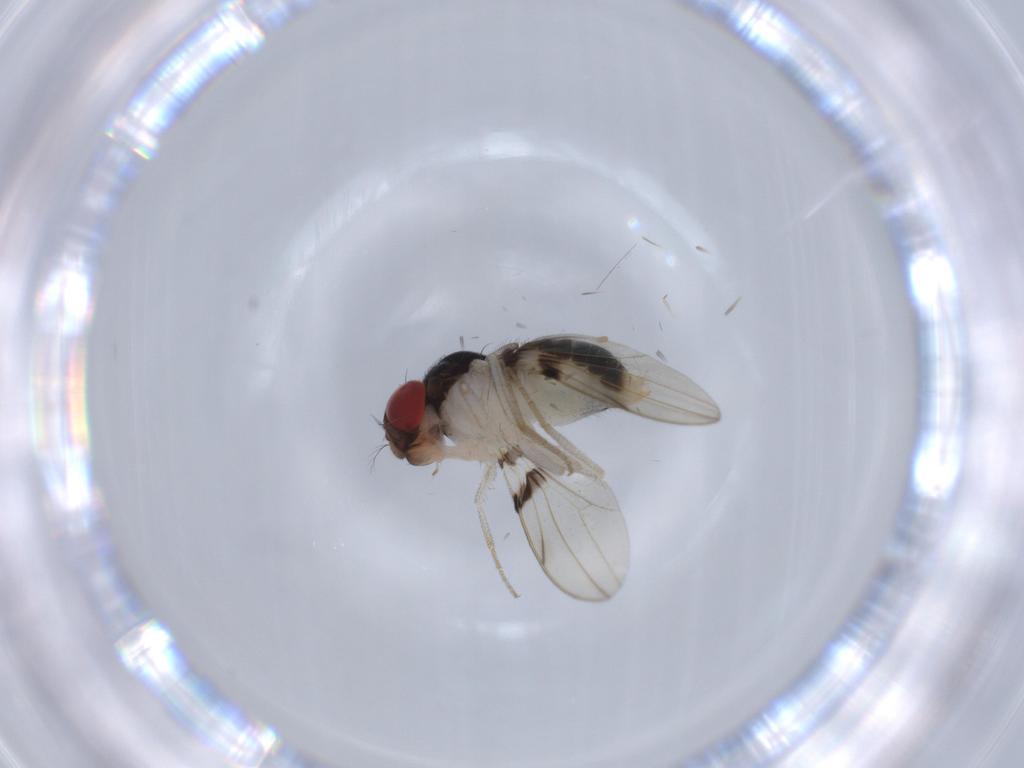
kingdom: Animalia
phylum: Arthropoda
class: Insecta
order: Diptera
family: Drosophilidae
